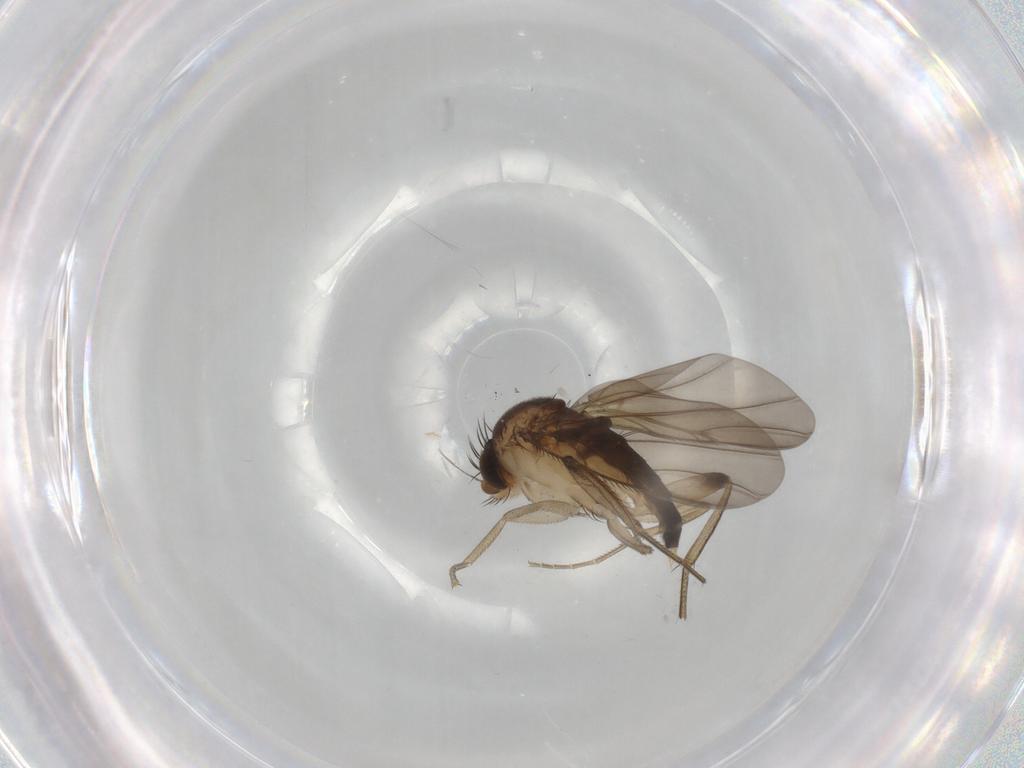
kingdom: Animalia
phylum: Arthropoda
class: Insecta
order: Diptera
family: Phoridae
